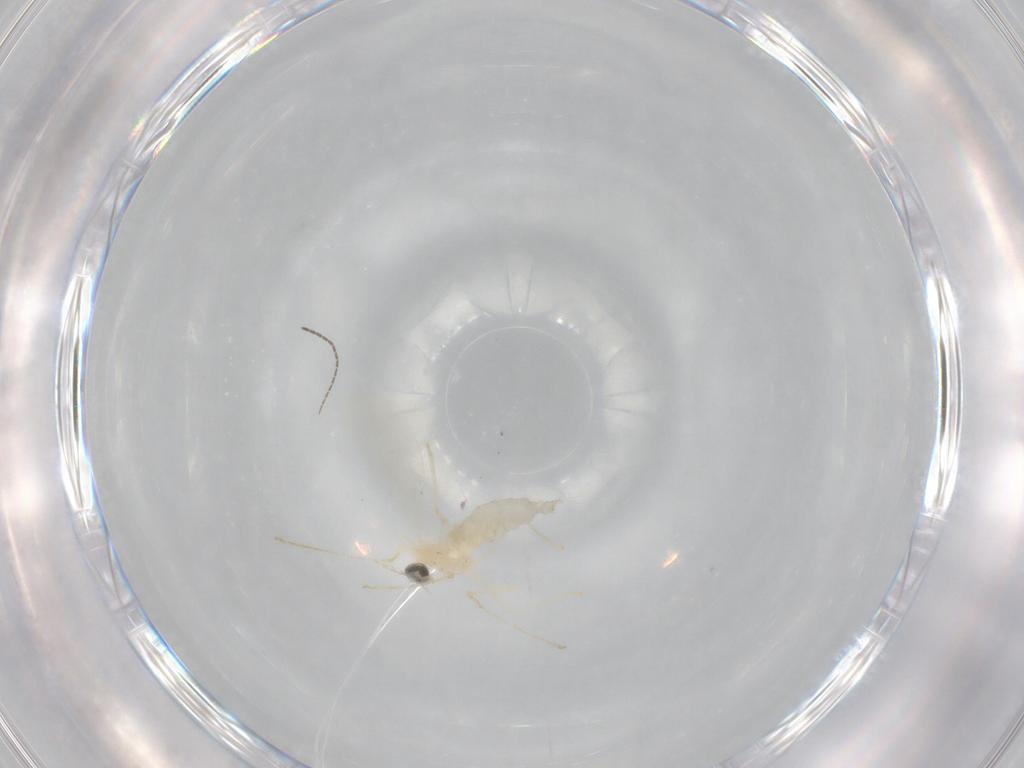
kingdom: Animalia
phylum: Arthropoda
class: Insecta
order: Diptera
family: Cecidomyiidae
